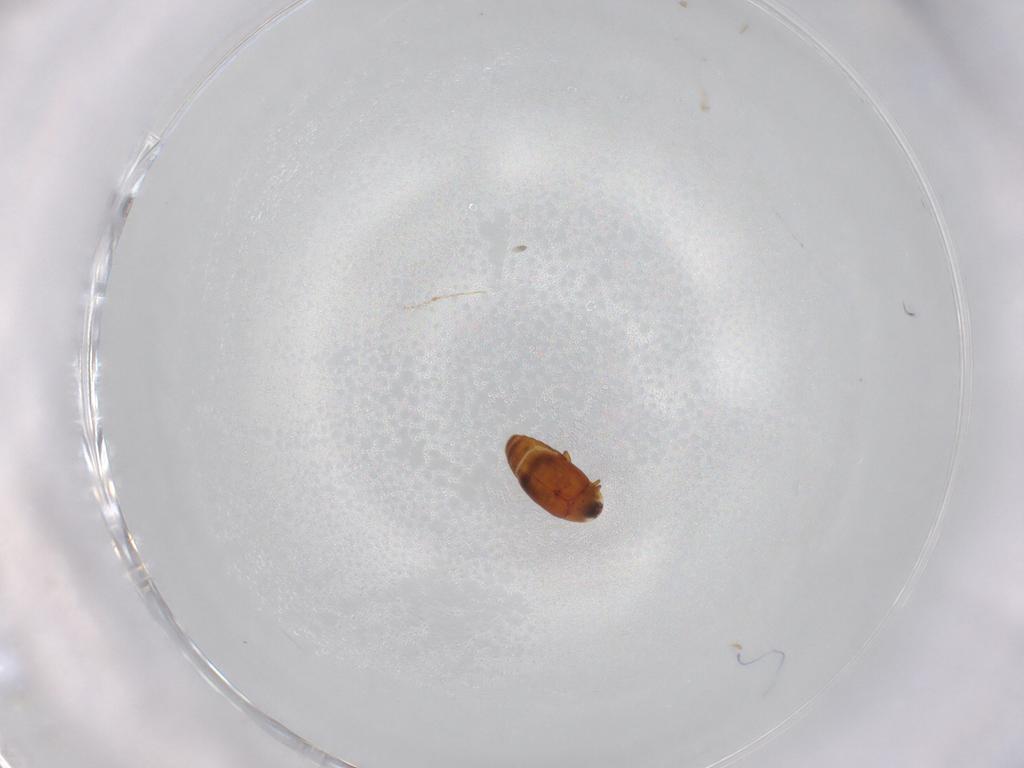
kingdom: Animalia
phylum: Arthropoda
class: Insecta
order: Coleoptera
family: Corylophidae
